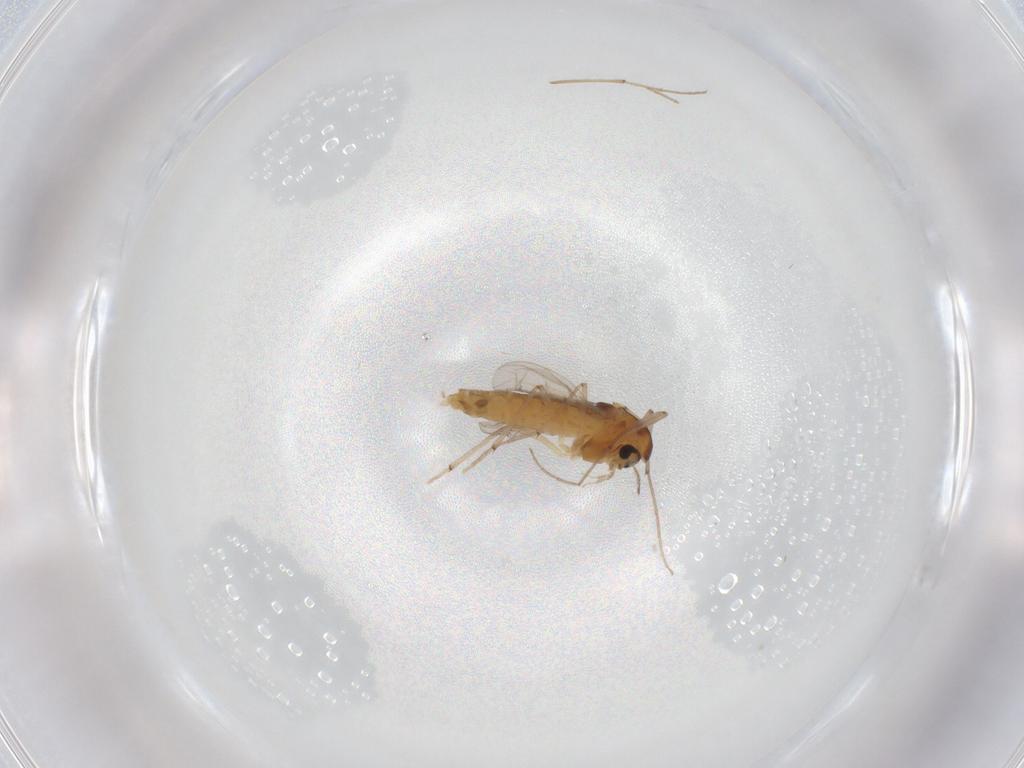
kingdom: Animalia
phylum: Arthropoda
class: Insecta
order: Diptera
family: Chironomidae
